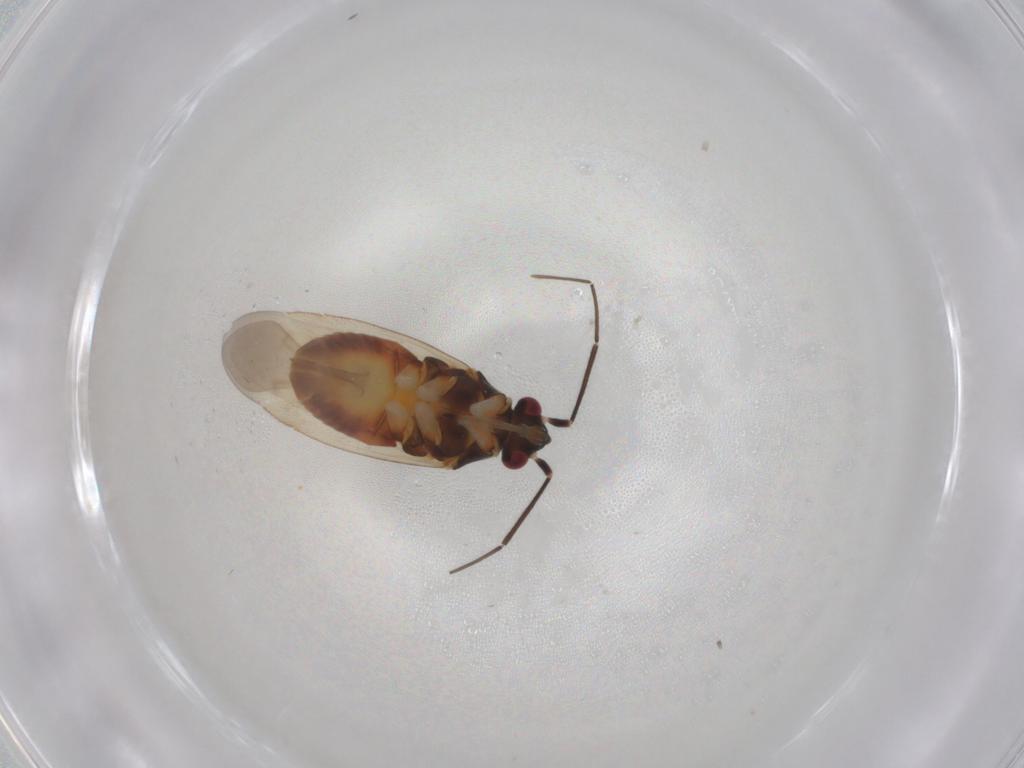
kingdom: Animalia
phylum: Arthropoda
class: Insecta
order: Hemiptera
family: Miridae
